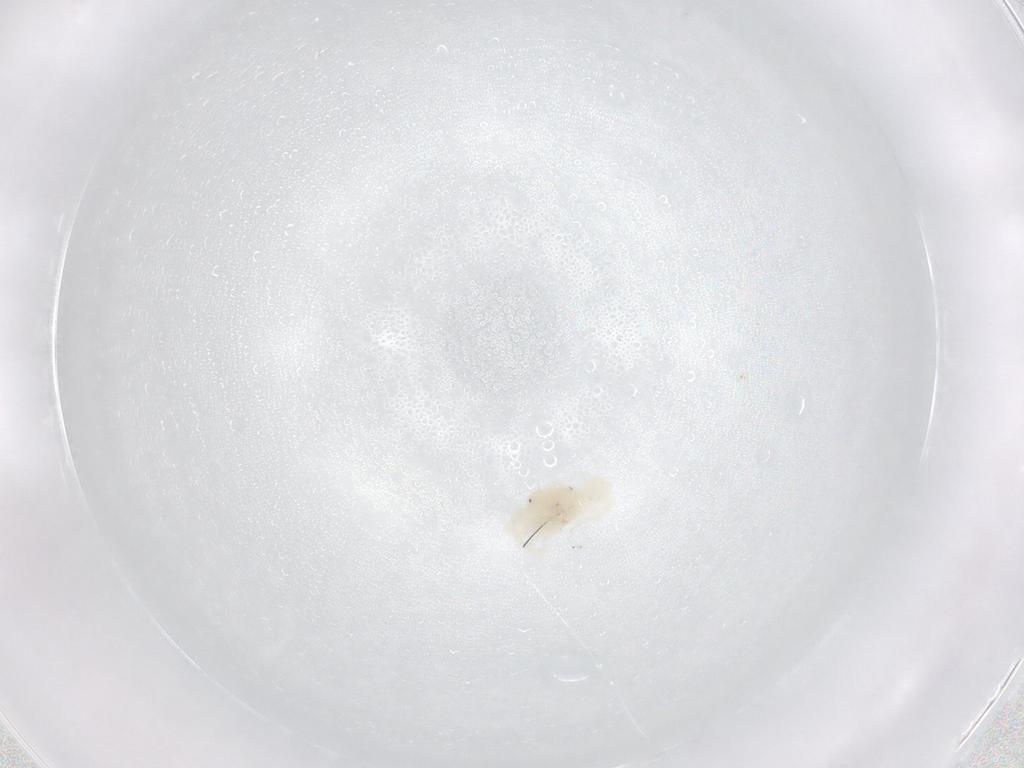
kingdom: Animalia
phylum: Arthropoda
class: Arachnida
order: Trombidiformes
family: Anystidae
